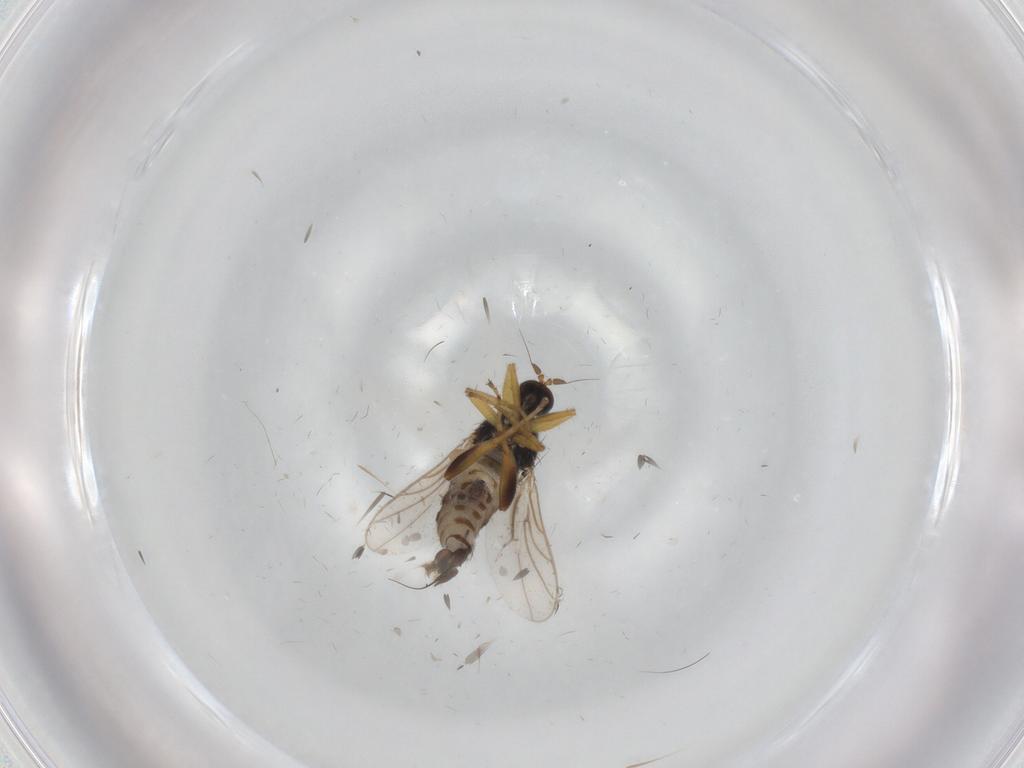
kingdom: Animalia
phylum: Arthropoda
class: Insecta
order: Diptera
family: Hybotidae
